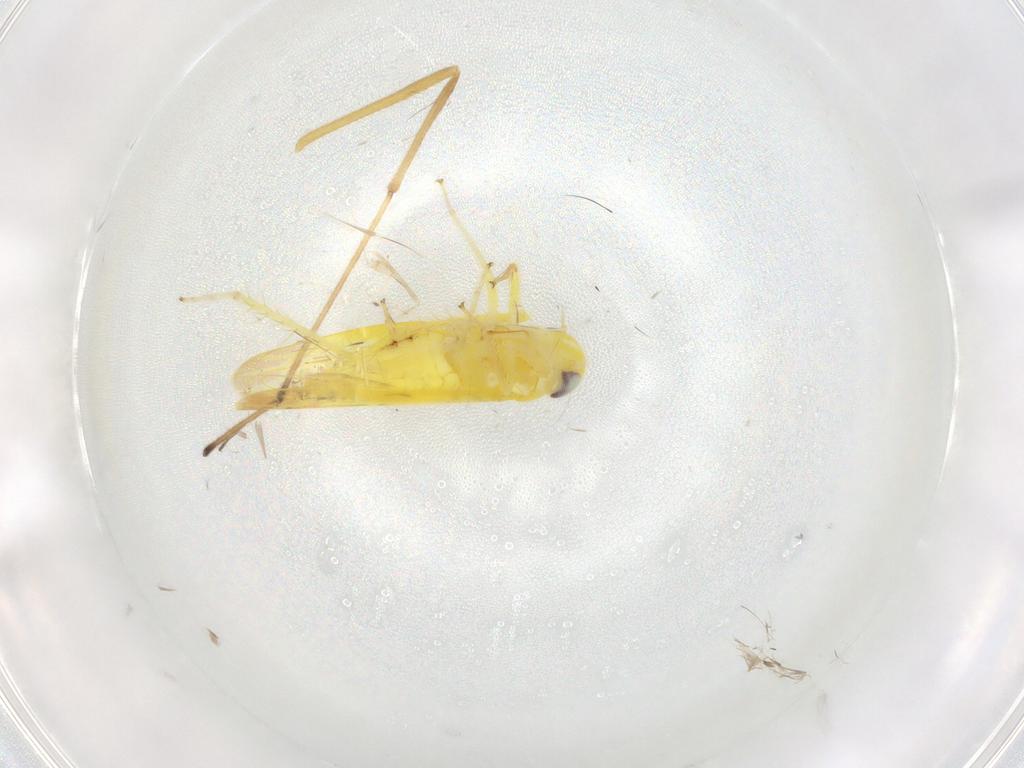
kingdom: Animalia
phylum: Arthropoda
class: Insecta
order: Hemiptera
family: Cicadellidae
